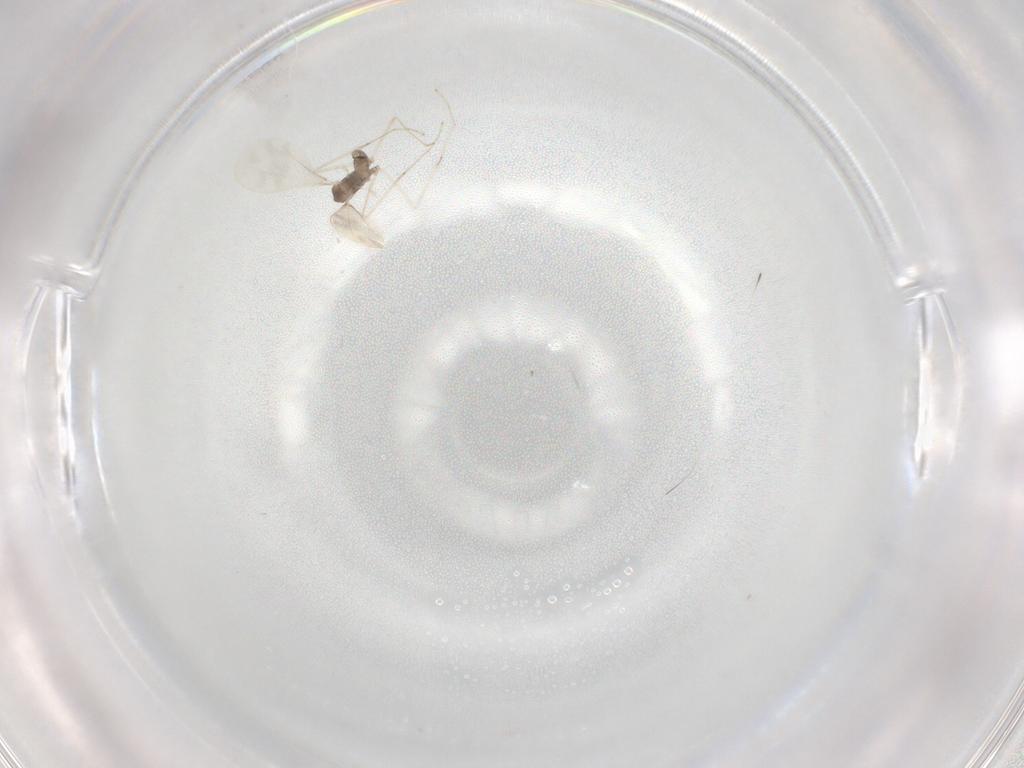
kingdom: Animalia
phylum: Arthropoda
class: Insecta
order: Diptera
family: Cecidomyiidae
